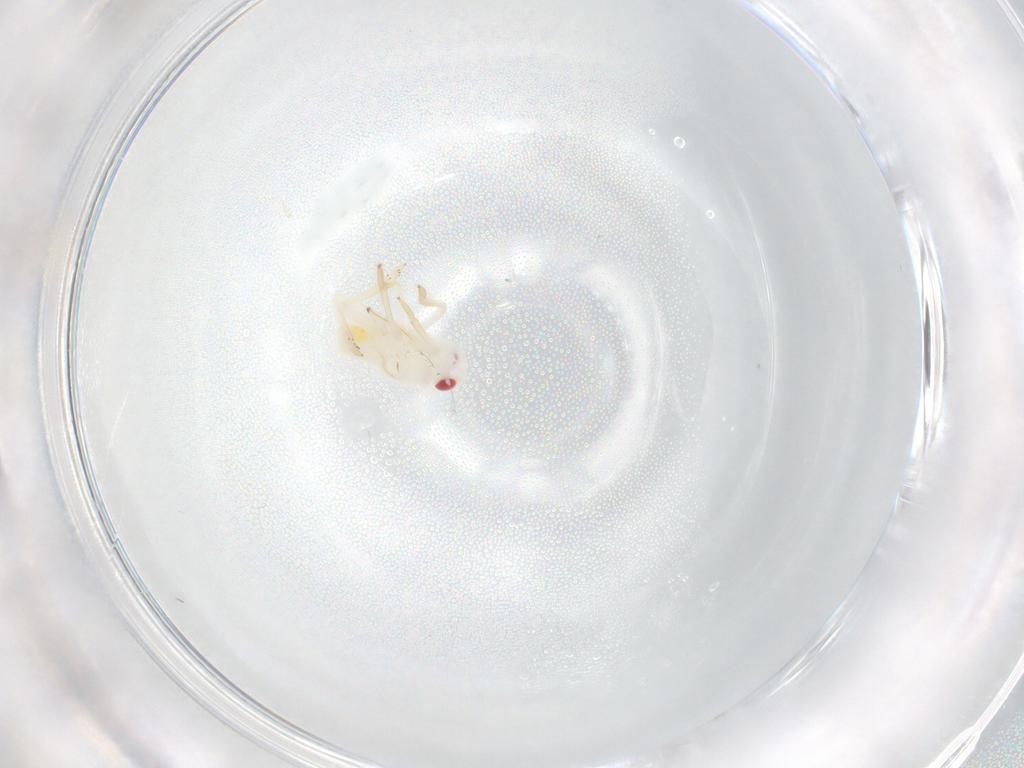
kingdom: Animalia
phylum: Arthropoda
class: Insecta
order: Hemiptera
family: Tropiduchidae
